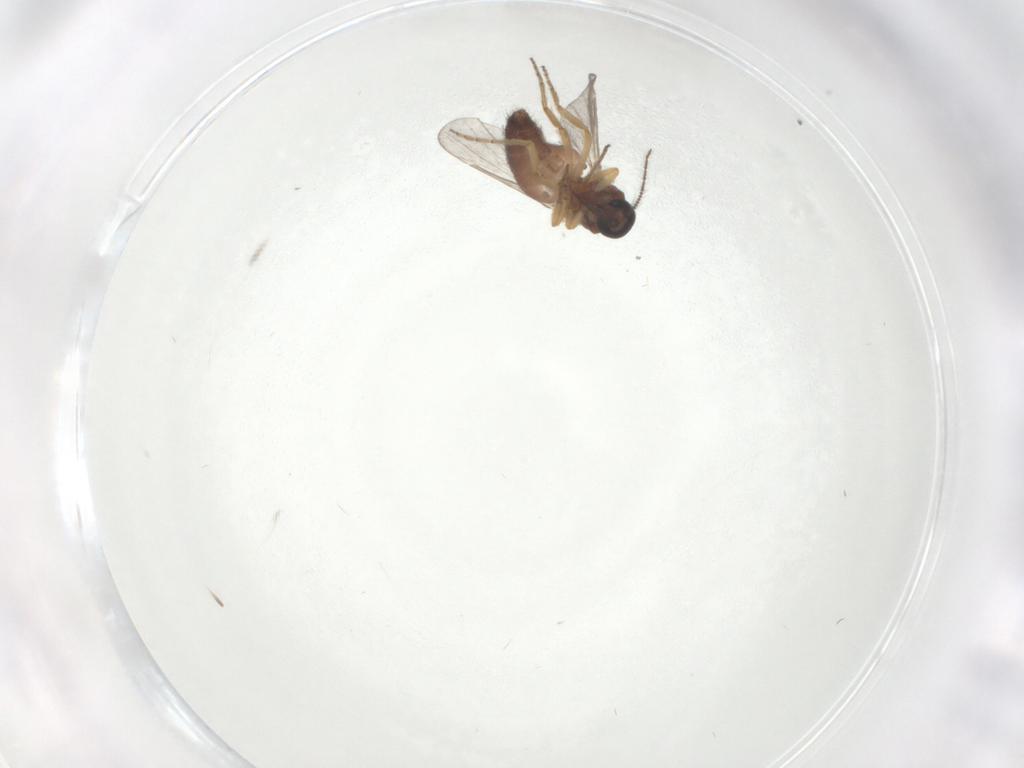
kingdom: Animalia
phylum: Arthropoda
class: Insecta
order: Diptera
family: Ceratopogonidae
